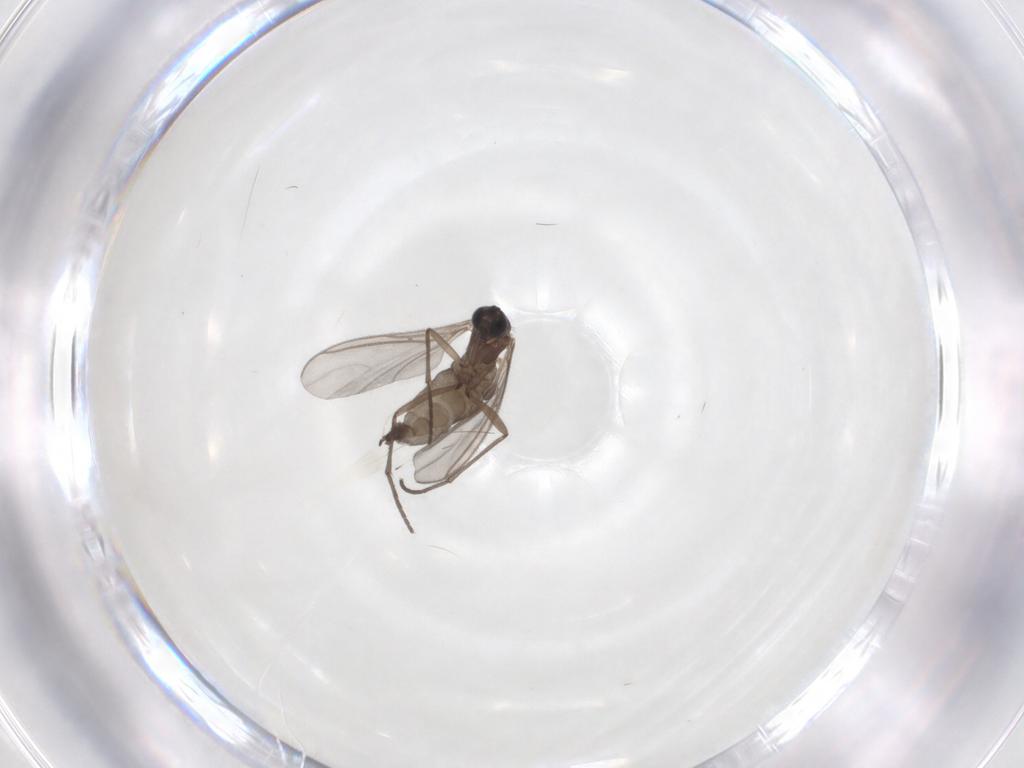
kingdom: Animalia
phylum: Arthropoda
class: Insecta
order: Diptera
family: Sciaridae
